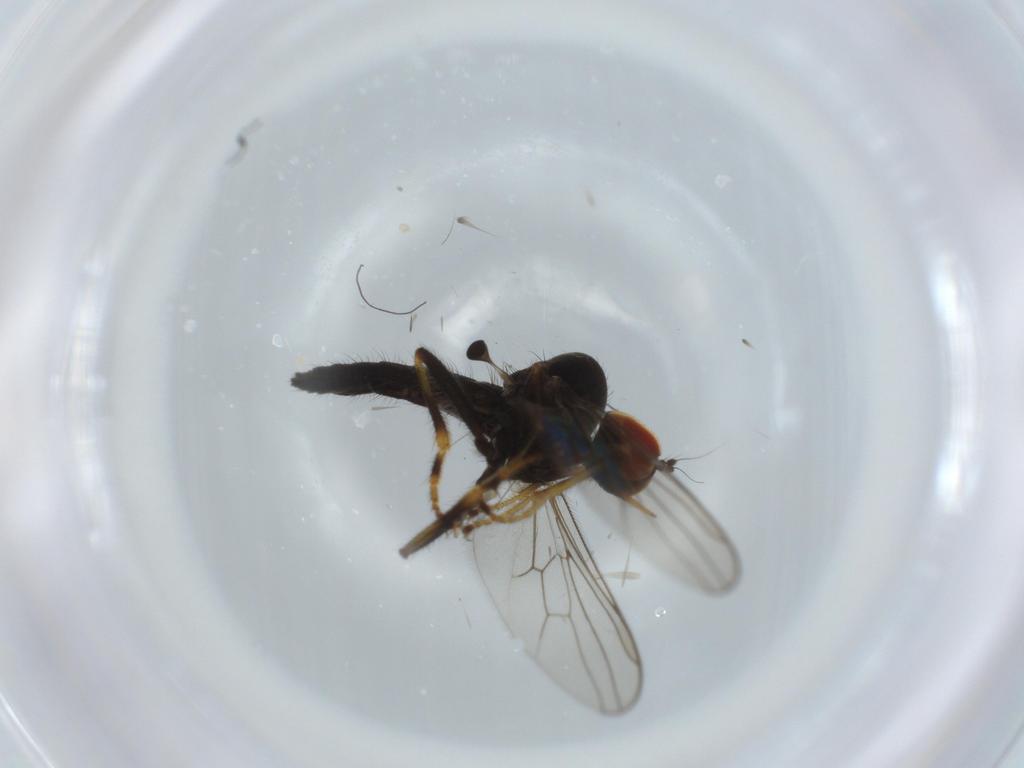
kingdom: Animalia
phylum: Arthropoda
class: Insecta
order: Diptera
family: Hybotidae
